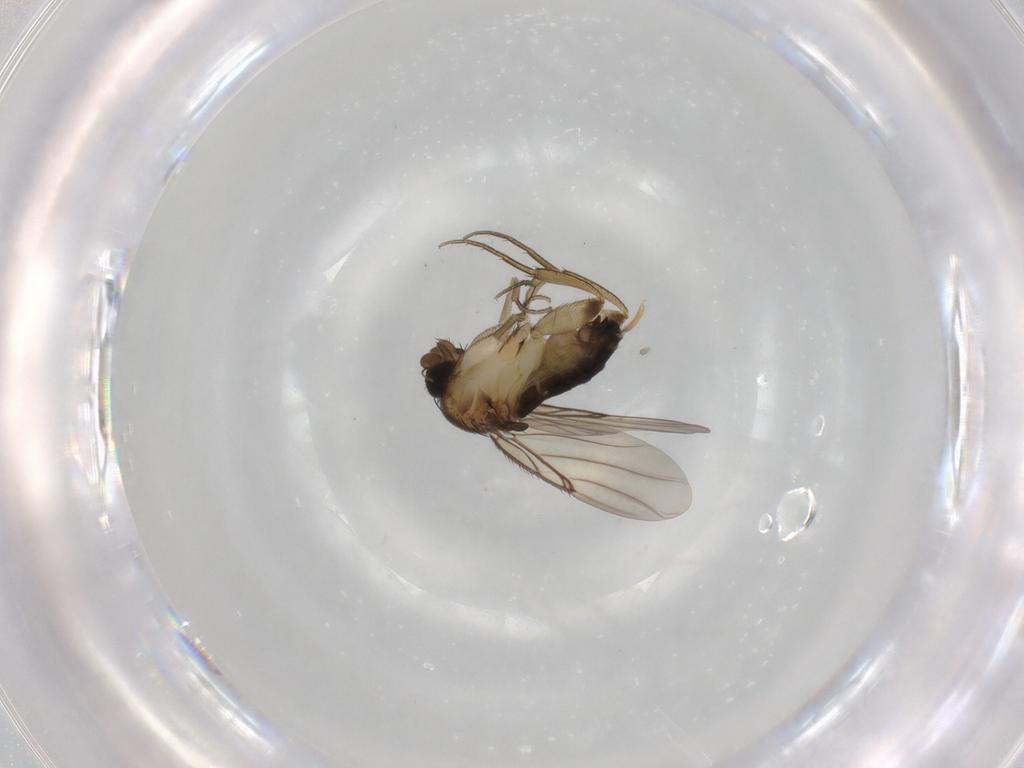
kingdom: Animalia
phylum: Arthropoda
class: Insecta
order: Diptera
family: Phoridae
